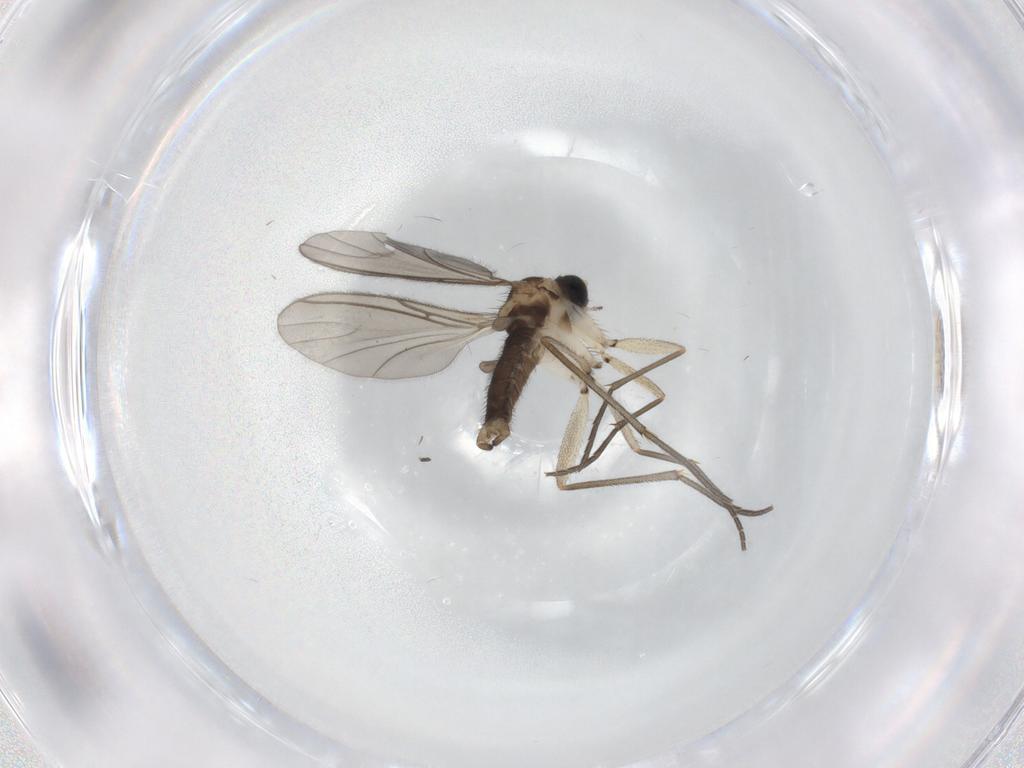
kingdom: Animalia
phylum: Arthropoda
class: Insecta
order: Diptera
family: Sciaridae
